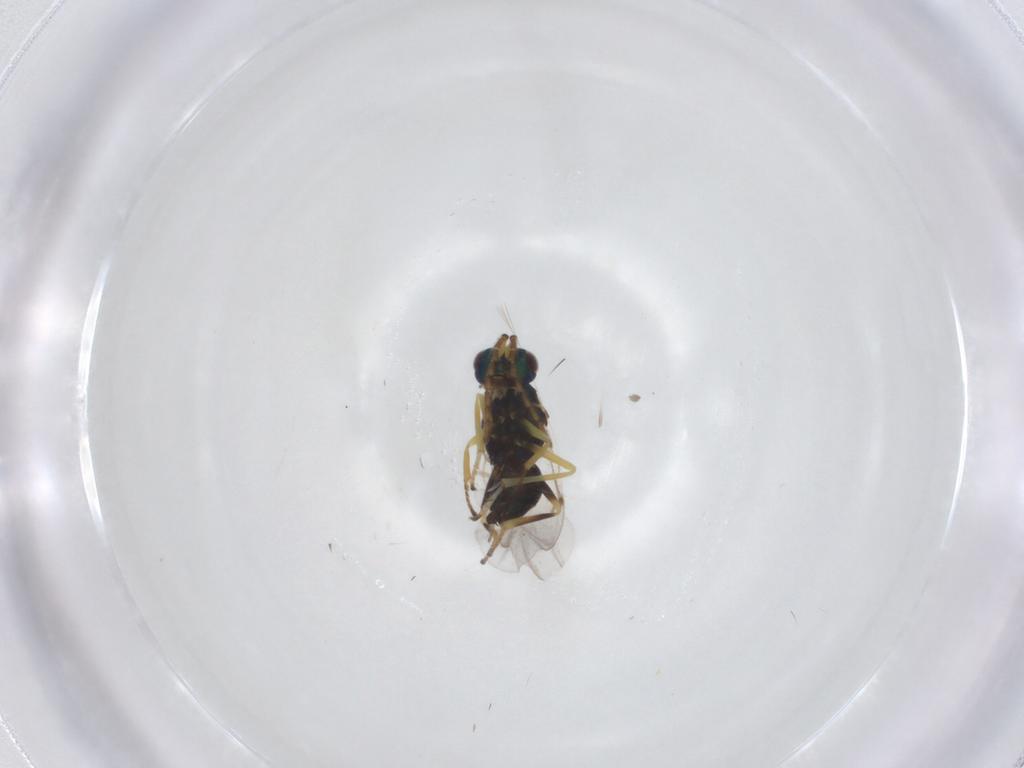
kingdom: Animalia
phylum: Arthropoda
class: Insecta
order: Hymenoptera
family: Encyrtidae
